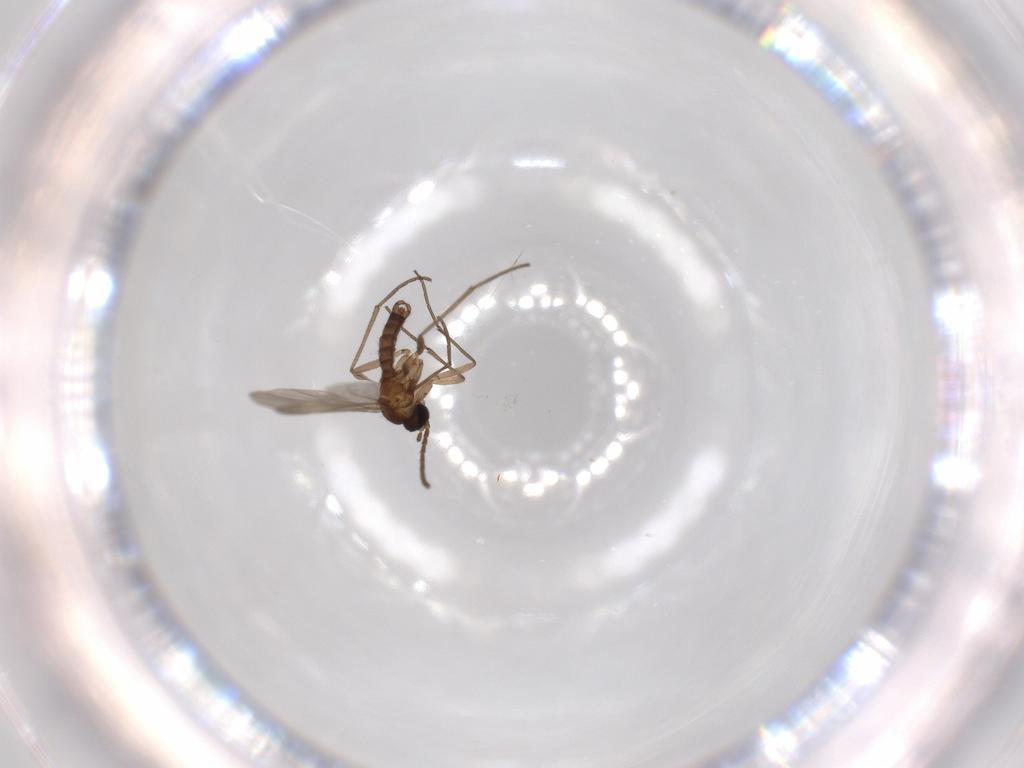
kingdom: Animalia
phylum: Arthropoda
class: Insecta
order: Diptera
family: Sciaridae
